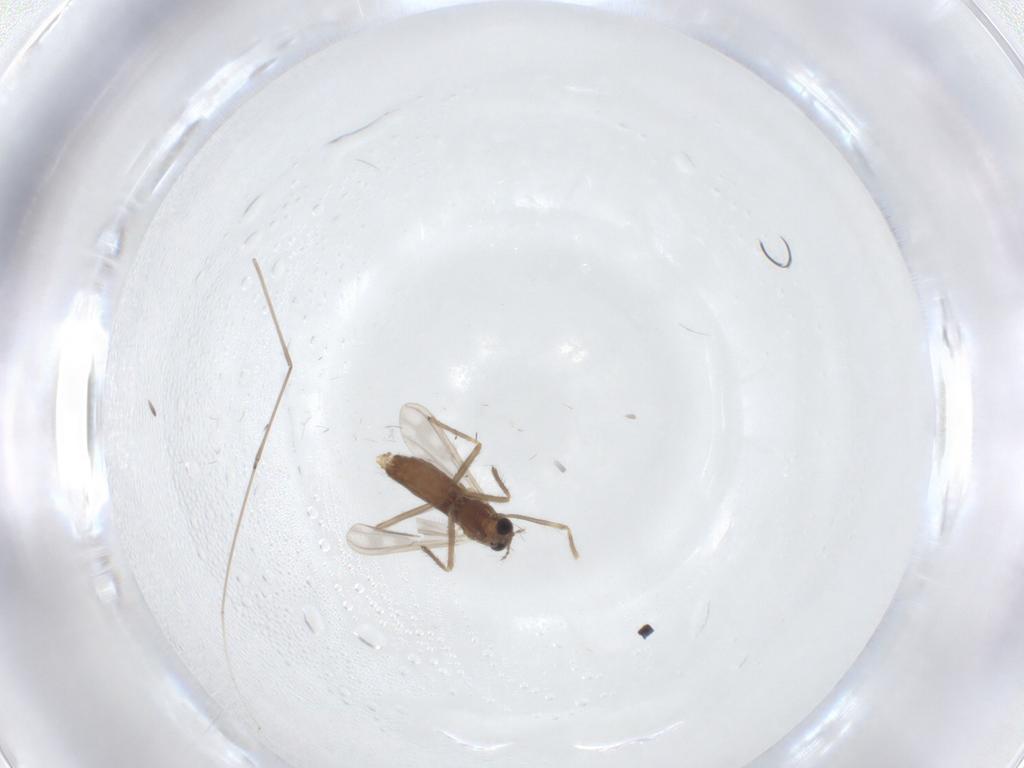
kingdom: Animalia
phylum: Arthropoda
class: Insecta
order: Diptera
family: Chironomidae
